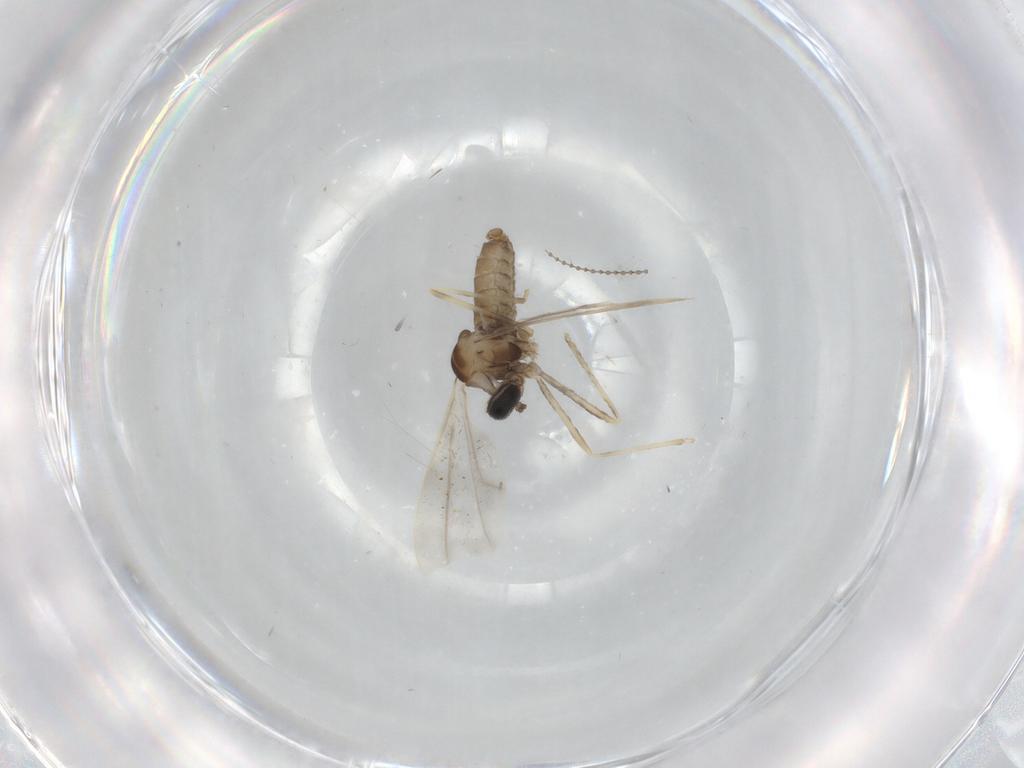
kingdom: Animalia
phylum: Arthropoda
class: Insecta
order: Diptera
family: Cecidomyiidae
